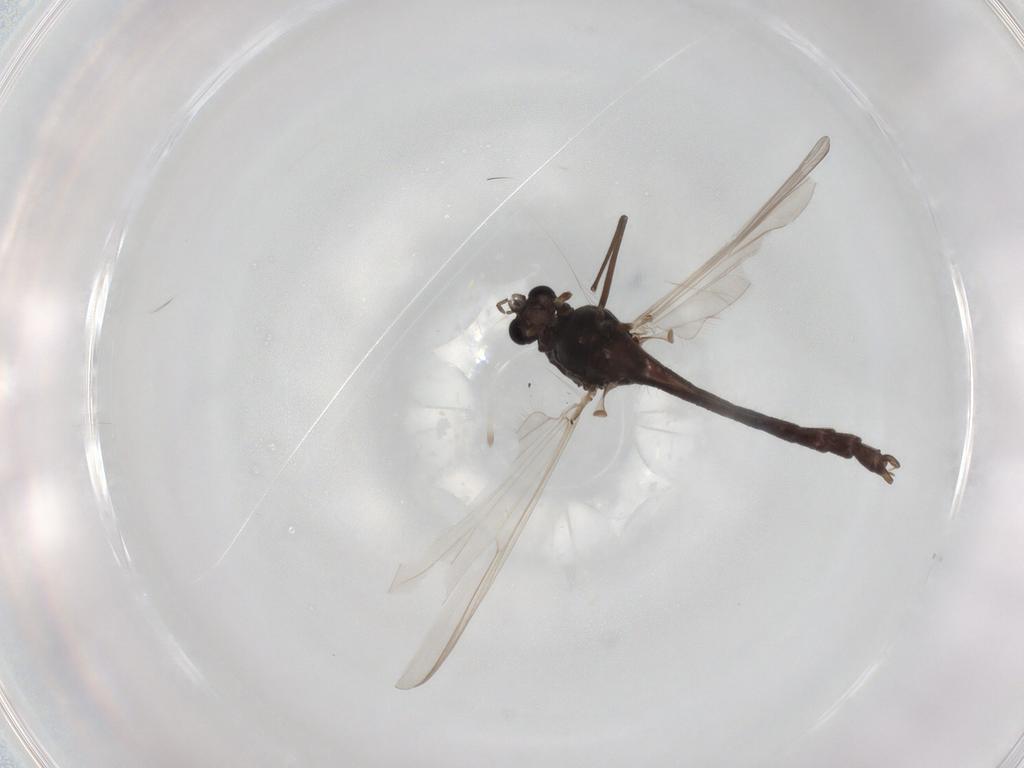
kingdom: Animalia
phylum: Arthropoda
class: Insecta
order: Diptera
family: Chironomidae
